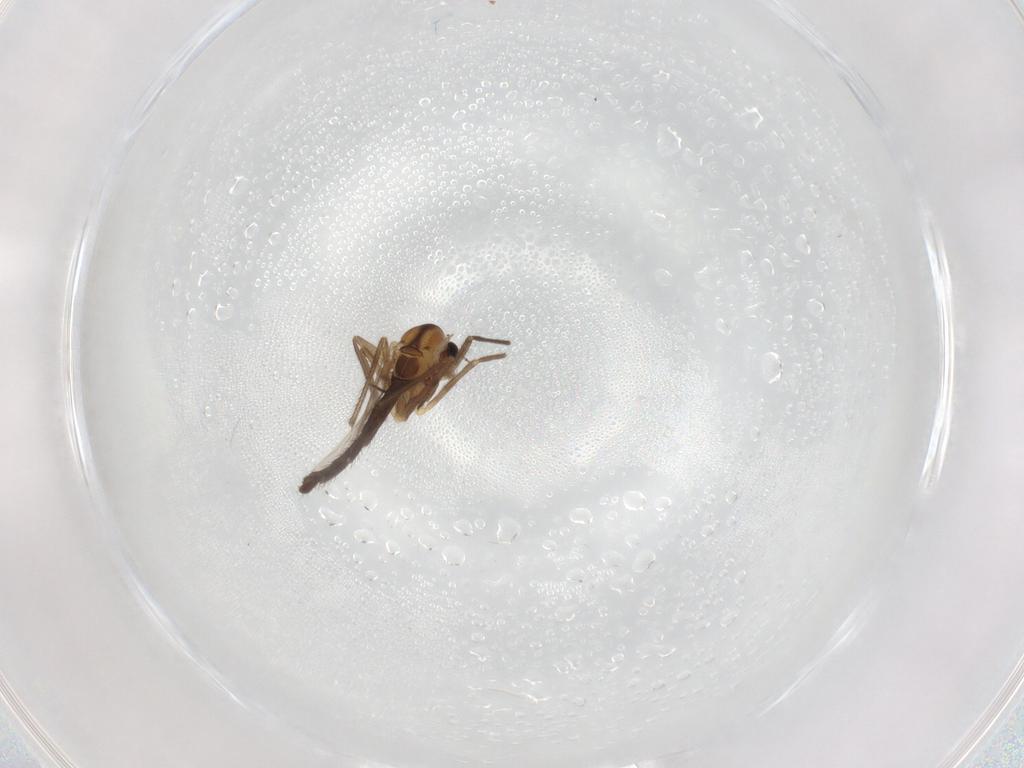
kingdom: Animalia
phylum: Arthropoda
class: Insecta
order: Diptera
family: Chironomidae
